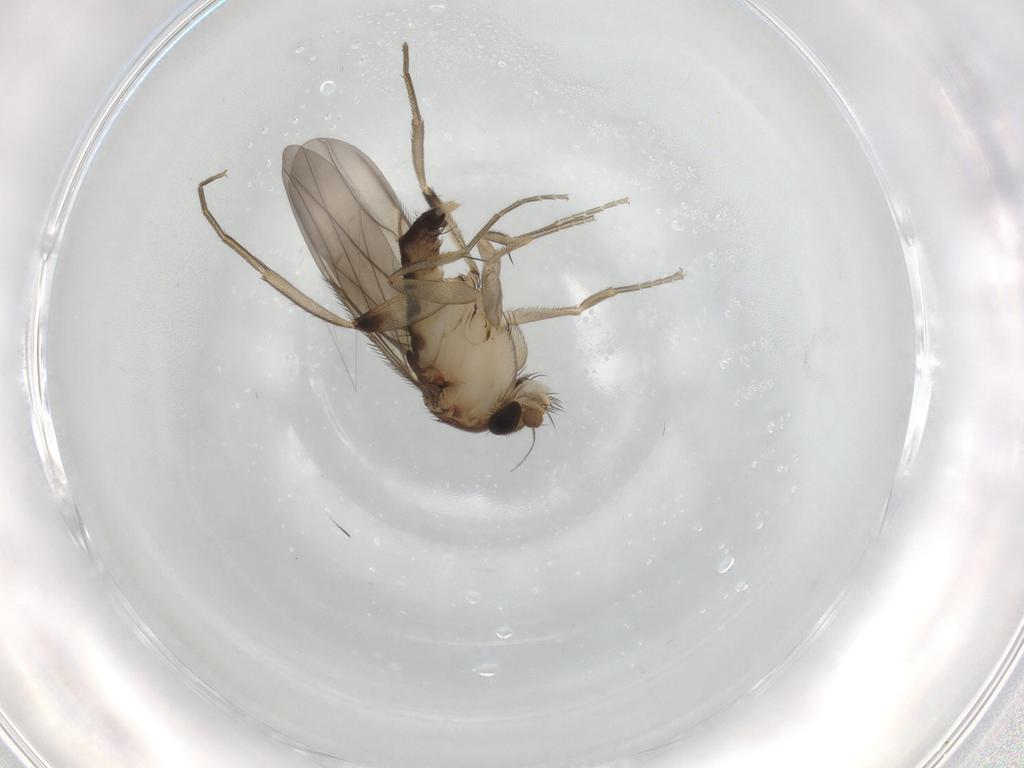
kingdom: Animalia
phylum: Arthropoda
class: Insecta
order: Diptera
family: Phoridae
